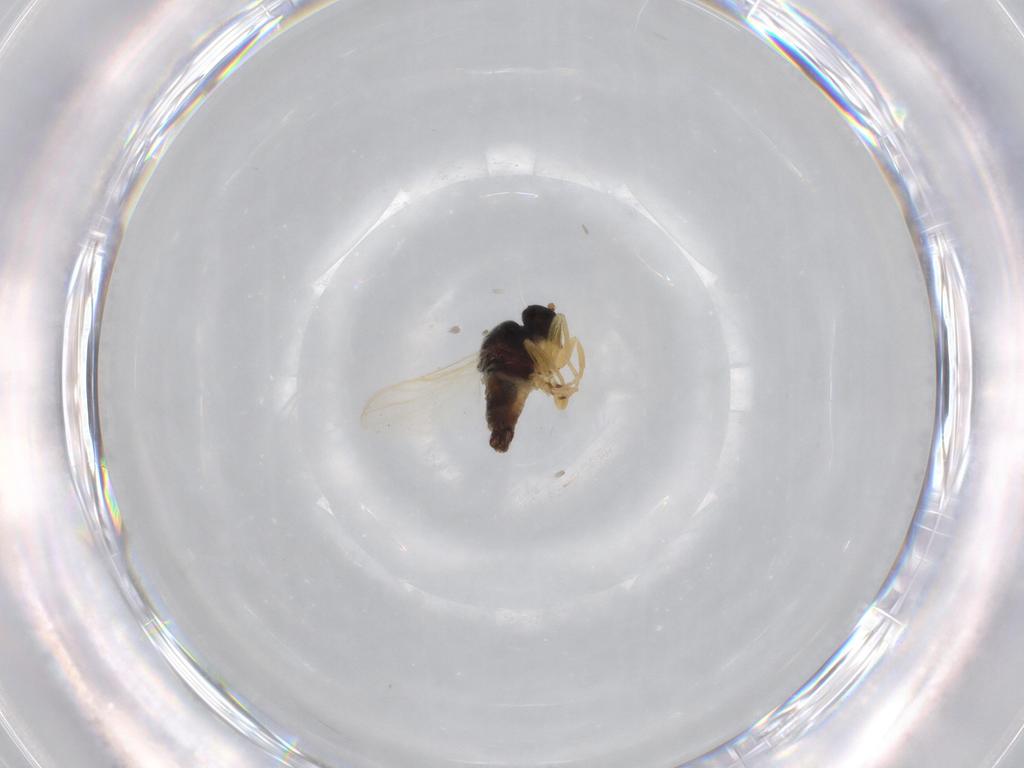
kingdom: Animalia
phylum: Arthropoda
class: Insecta
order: Diptera
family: Hybotidae
